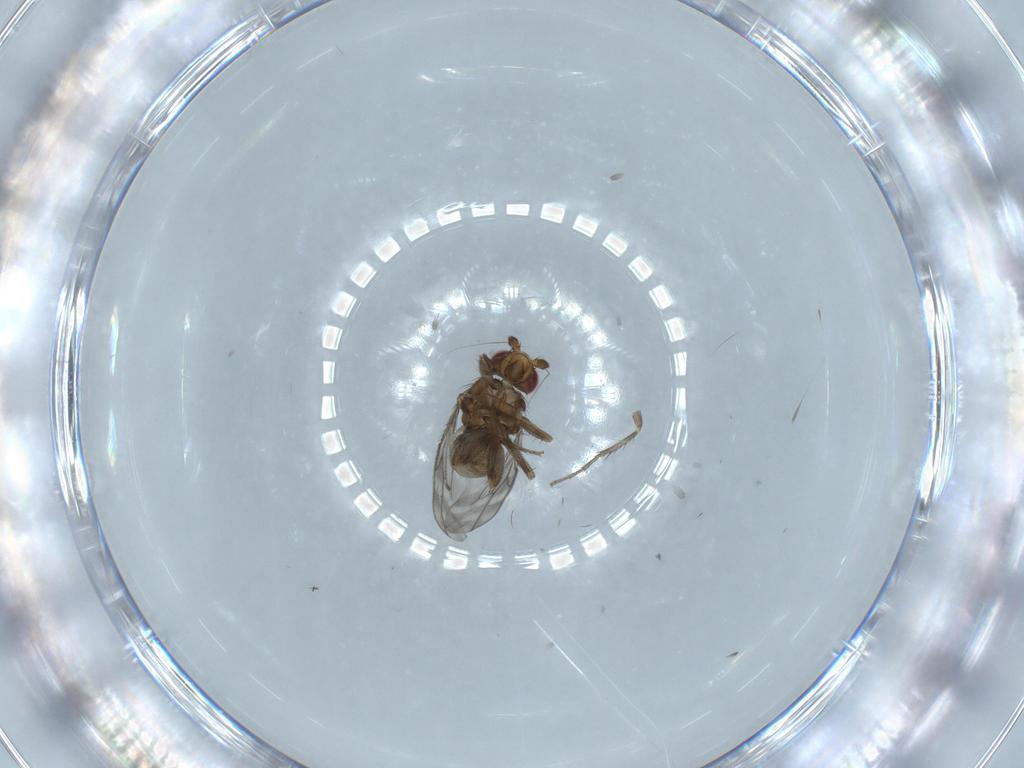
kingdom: Animalia
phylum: Arthropoda
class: Insecta
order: Diptera
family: Sphaeroceridae
